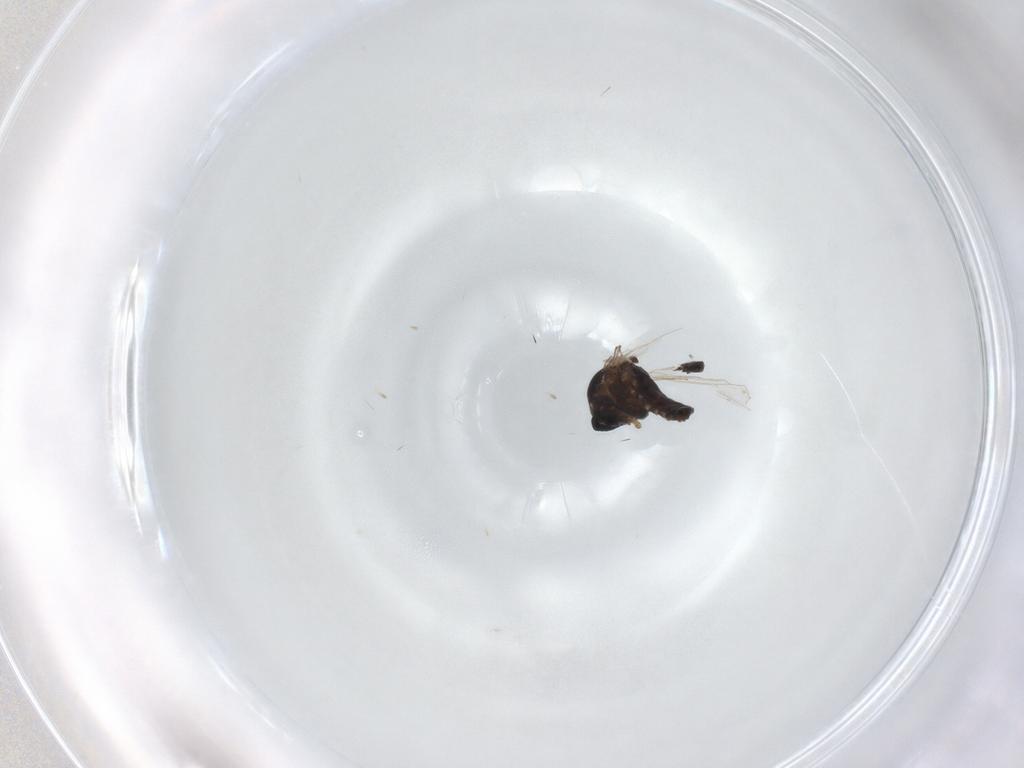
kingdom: Animalia
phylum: Arthropoda
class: Insecta
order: Diptera
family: Ceratopogonidae
